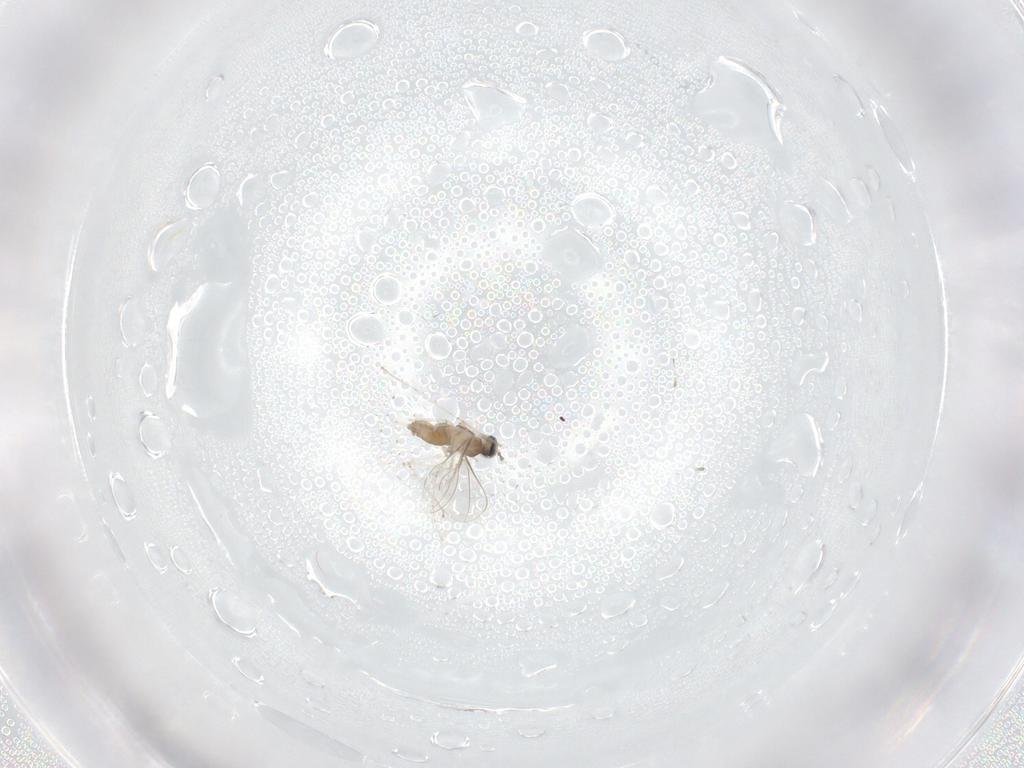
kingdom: Animalia
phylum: Arthropoda
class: Insecta
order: Diptera
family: Cecidomyiidae
